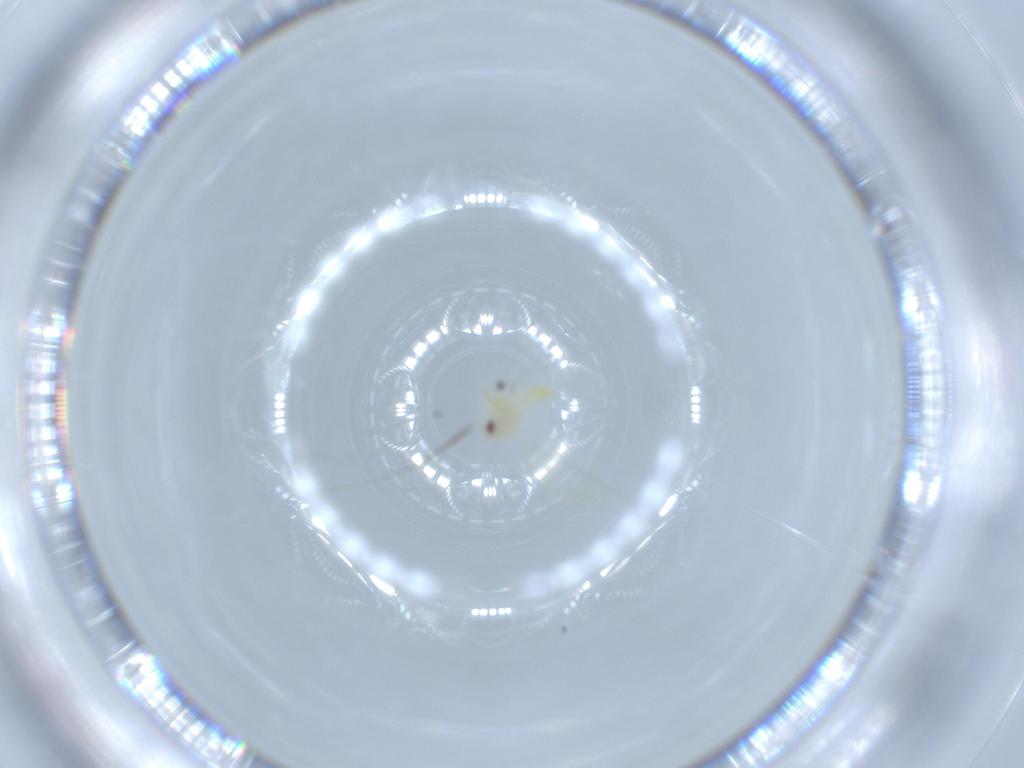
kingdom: Animalia
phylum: Arthropoda
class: Insecta
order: Hemiptera
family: Aleyrodidae
